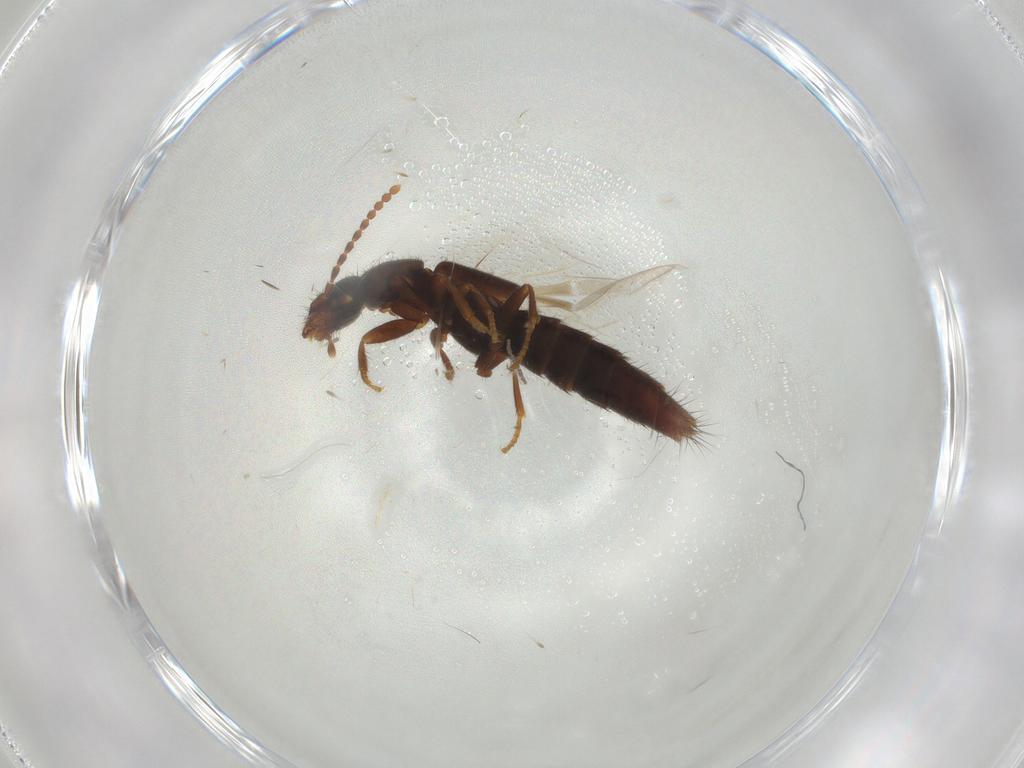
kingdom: Animalia
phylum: Arthropoda
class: Insecta
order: Coleoptera
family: Staphylinidae
